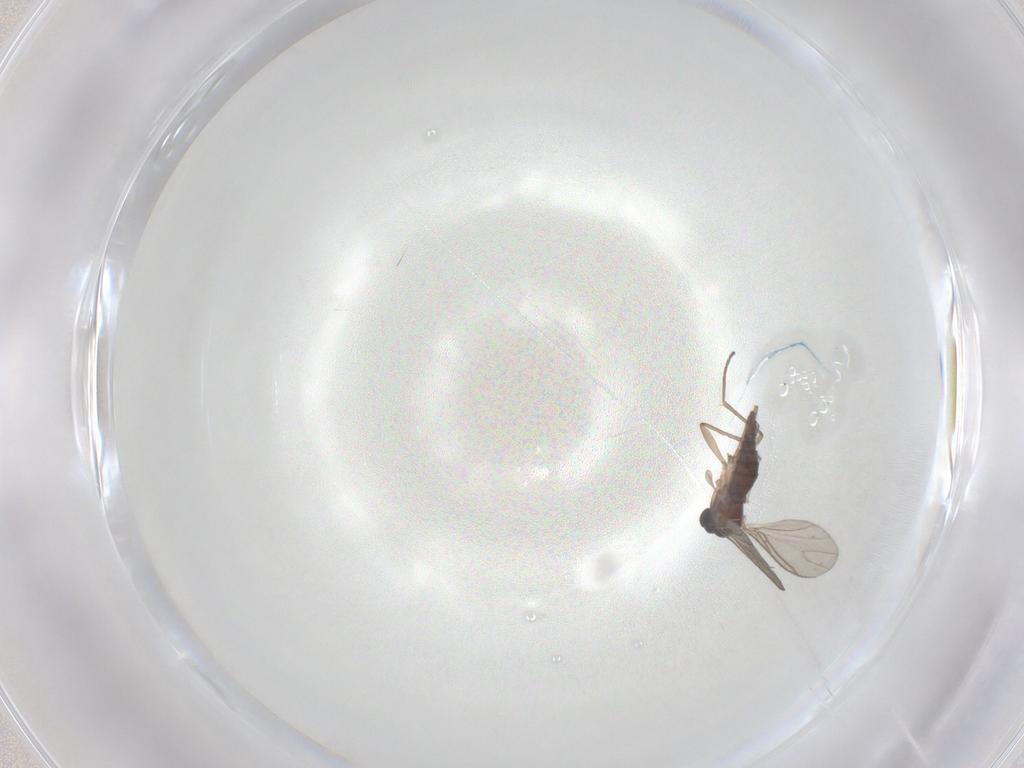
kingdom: Animalia
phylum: Arthropoda
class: Insecta
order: Diptera
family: Sciaridae
